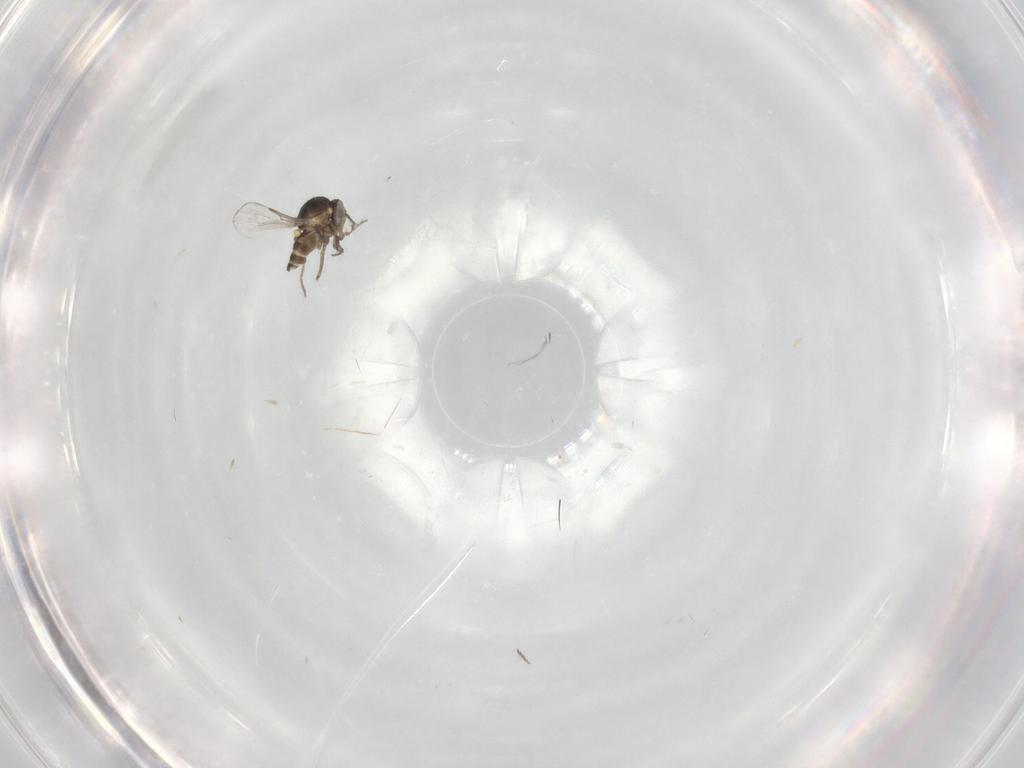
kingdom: Animalia
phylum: Arthropoda
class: Insecta
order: Diptera
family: Ceratopogonidae
